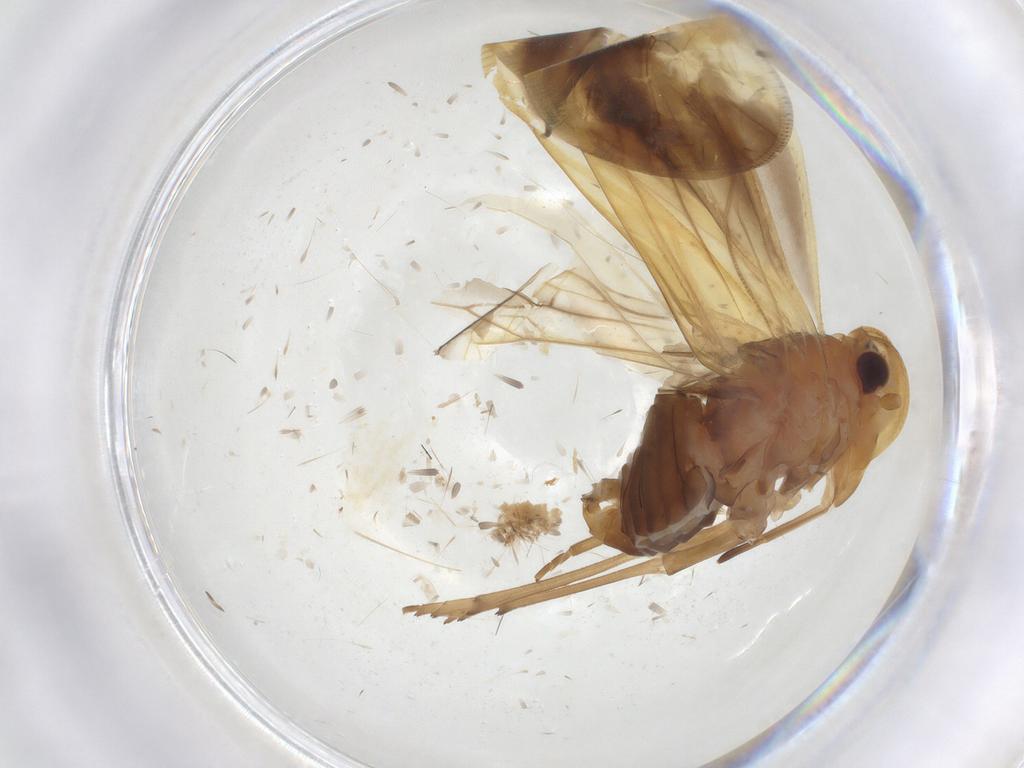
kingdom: Animalia
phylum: Arthropoda
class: Insecta
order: Hemiptera
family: Meenoplidae
